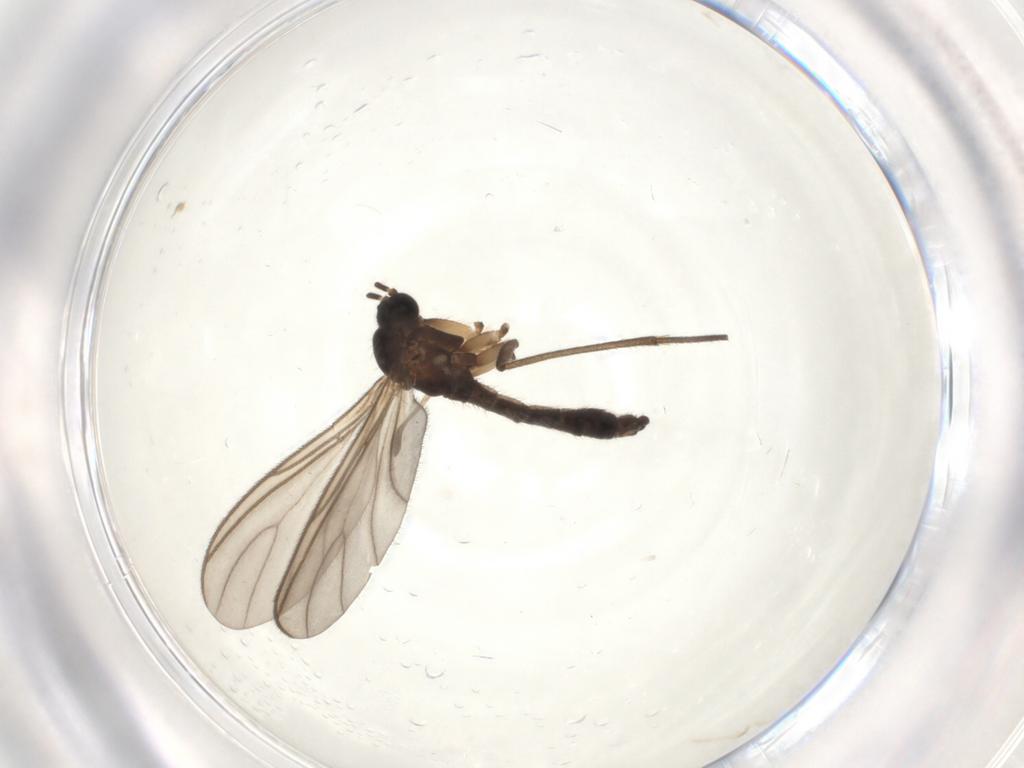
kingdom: Animalia
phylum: Arthropoda
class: Insecta
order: Diptera
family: Sciaridae
